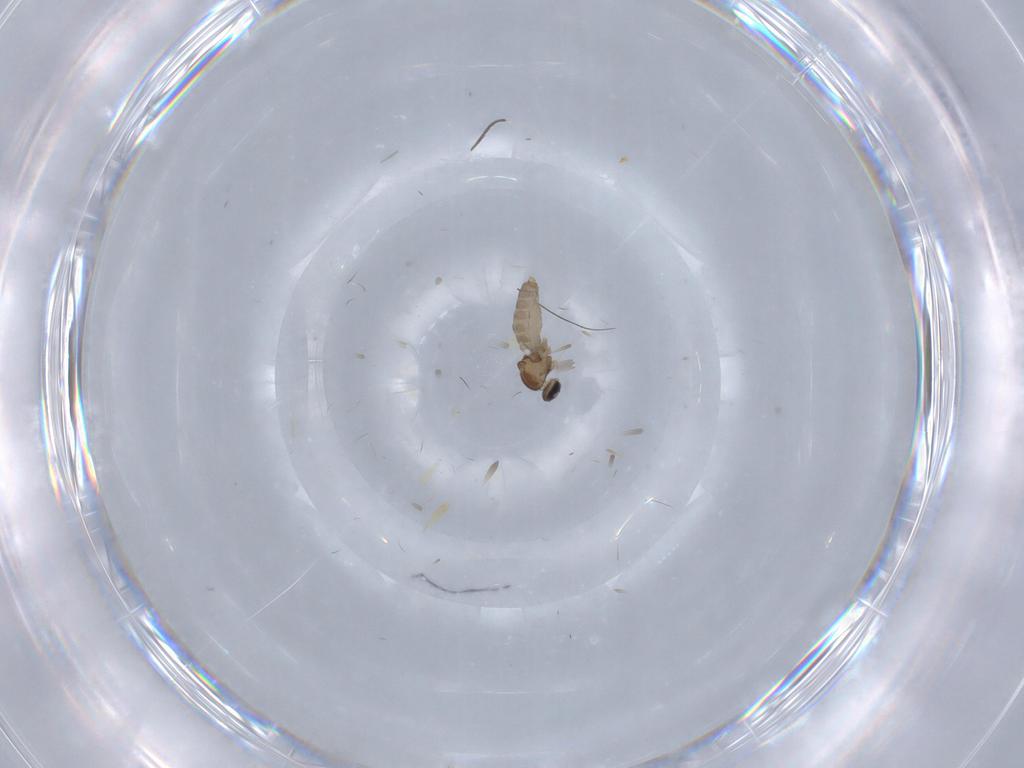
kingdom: Animalia
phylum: Arthropoda
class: Insecta
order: Diptera
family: Cecidomyiidae
